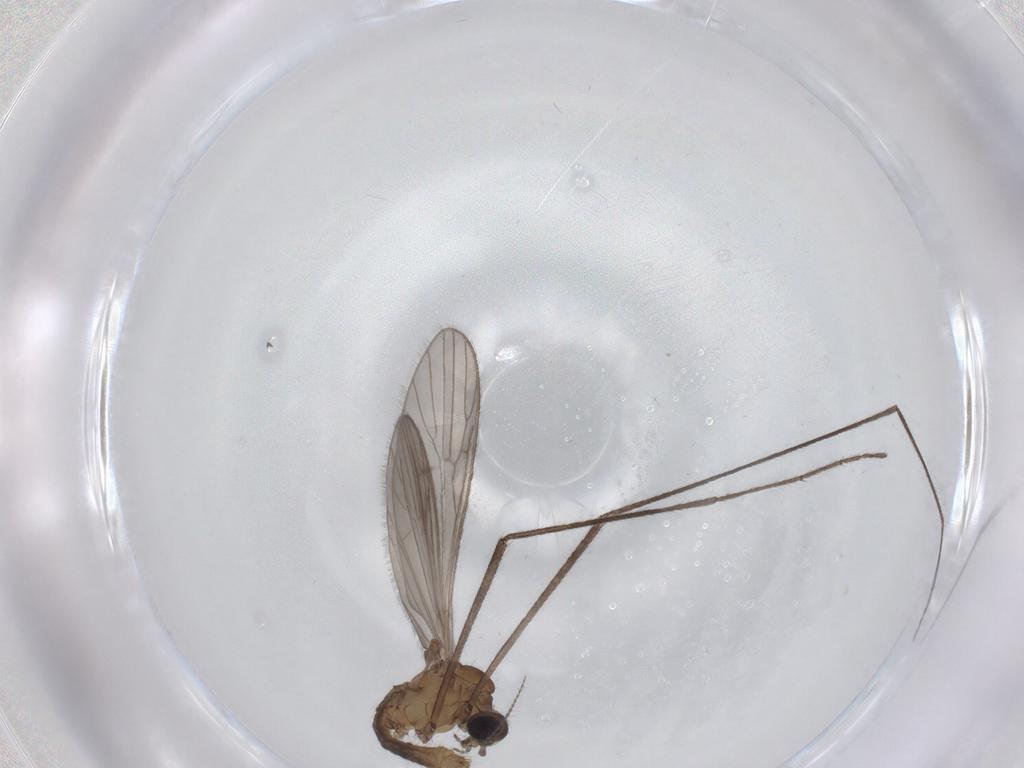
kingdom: Animalia
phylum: Arthropoda
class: Insecta
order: Diptera
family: Limoniidae
